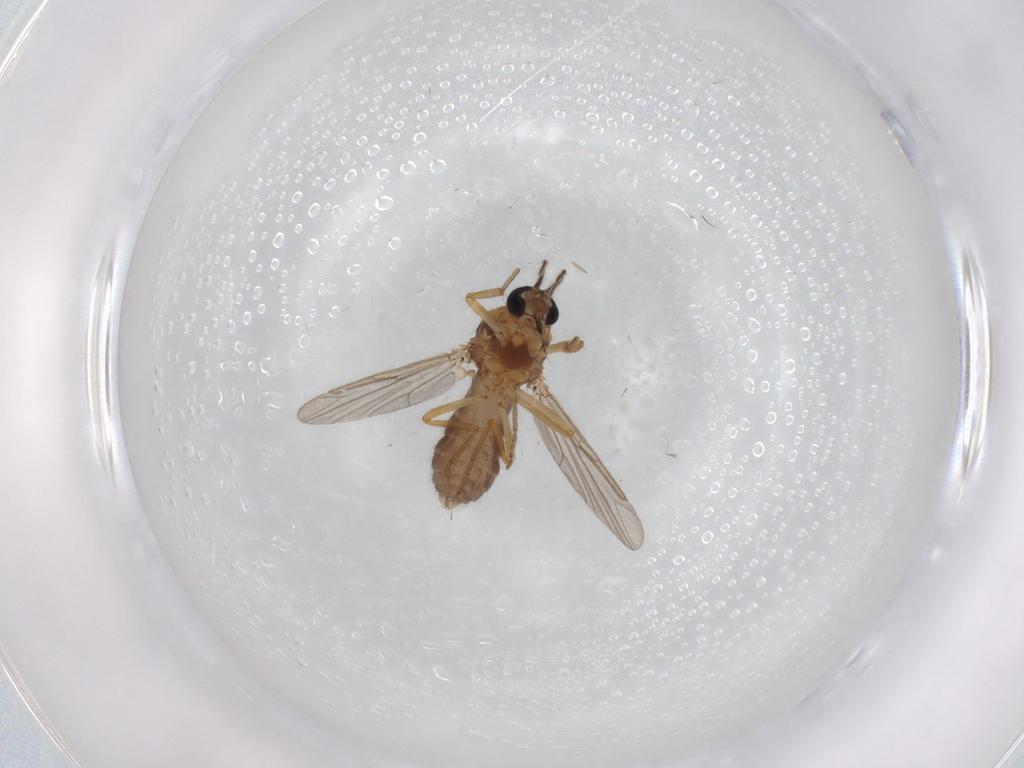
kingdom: Animalia
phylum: Arthropoda
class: Insecta
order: Diptera
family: Ceratopogonidae
